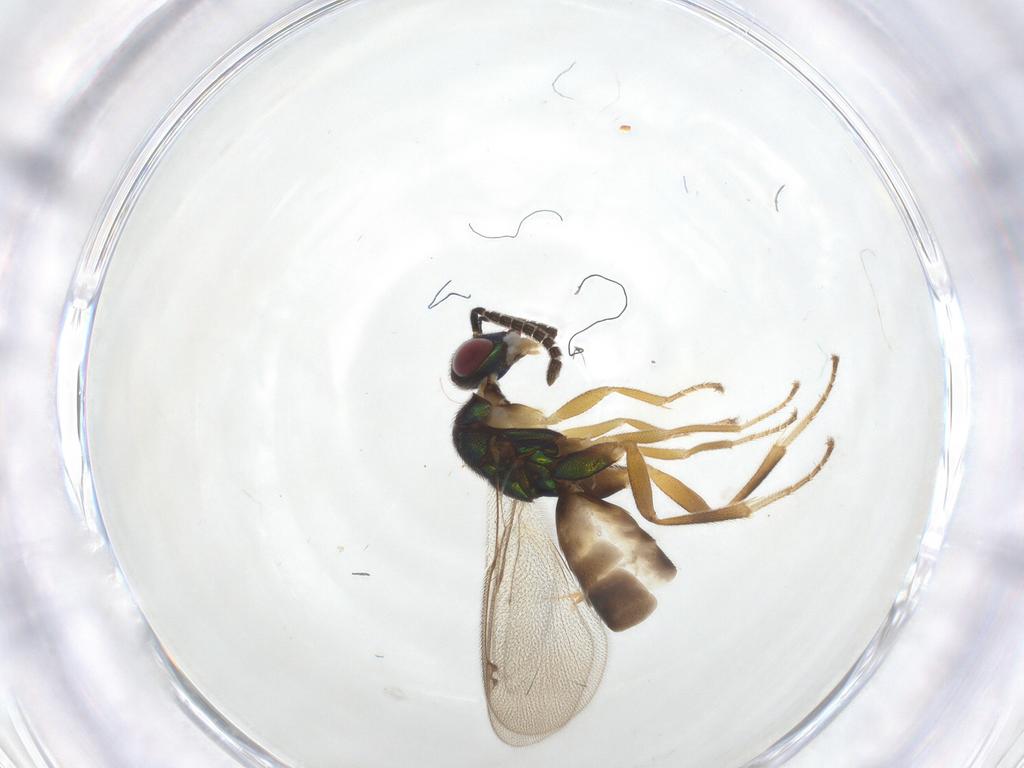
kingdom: Animalia
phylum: Arthropoda
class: Insecta
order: Hymenoptera
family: Torymidae
